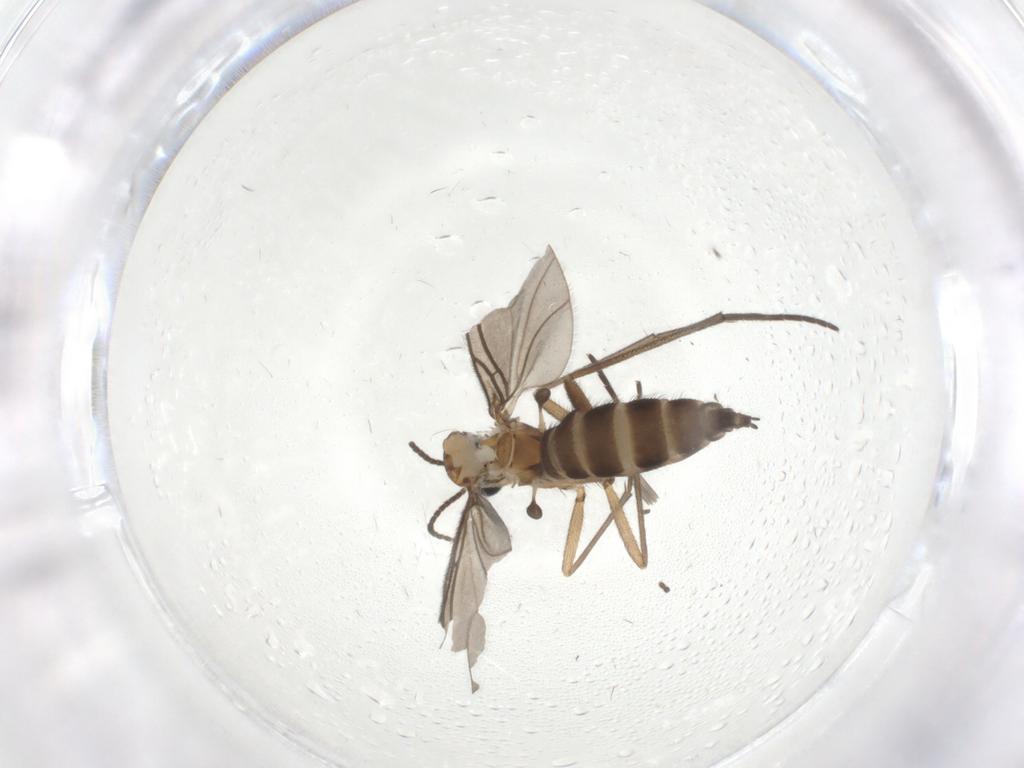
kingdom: Animalia
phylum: Arthropoda
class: Insecta
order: Diptera
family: Sciaridae
